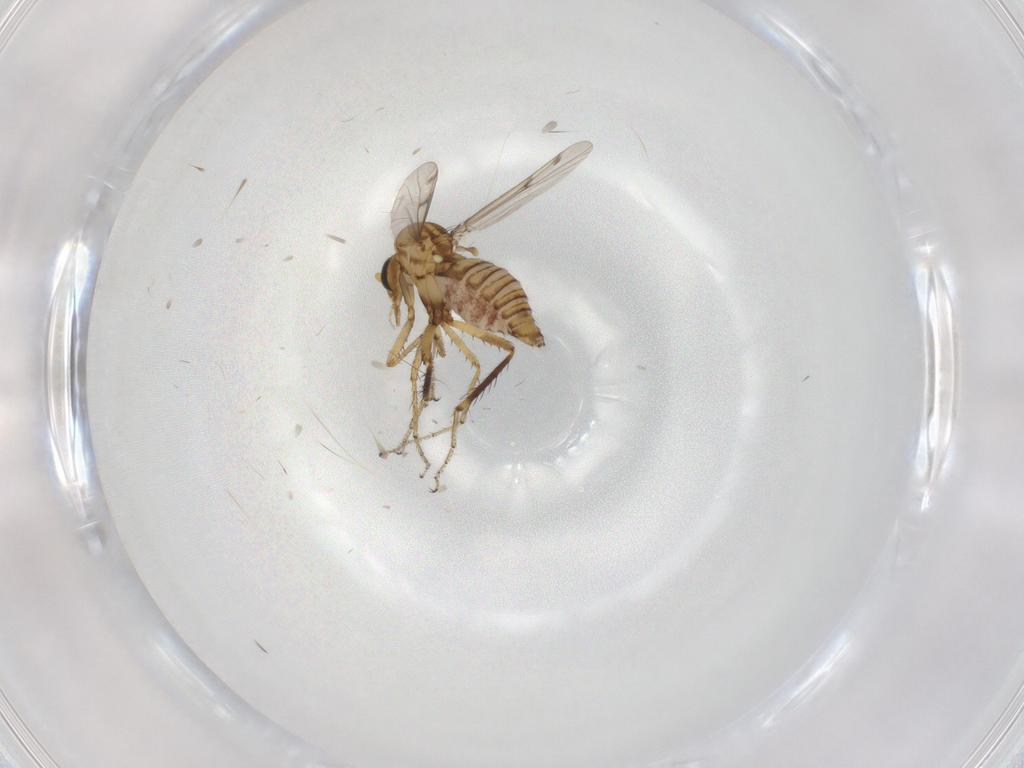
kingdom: Animalia
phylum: Arthropoda
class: Insecta
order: Diptera
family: Ceratopogonidae
